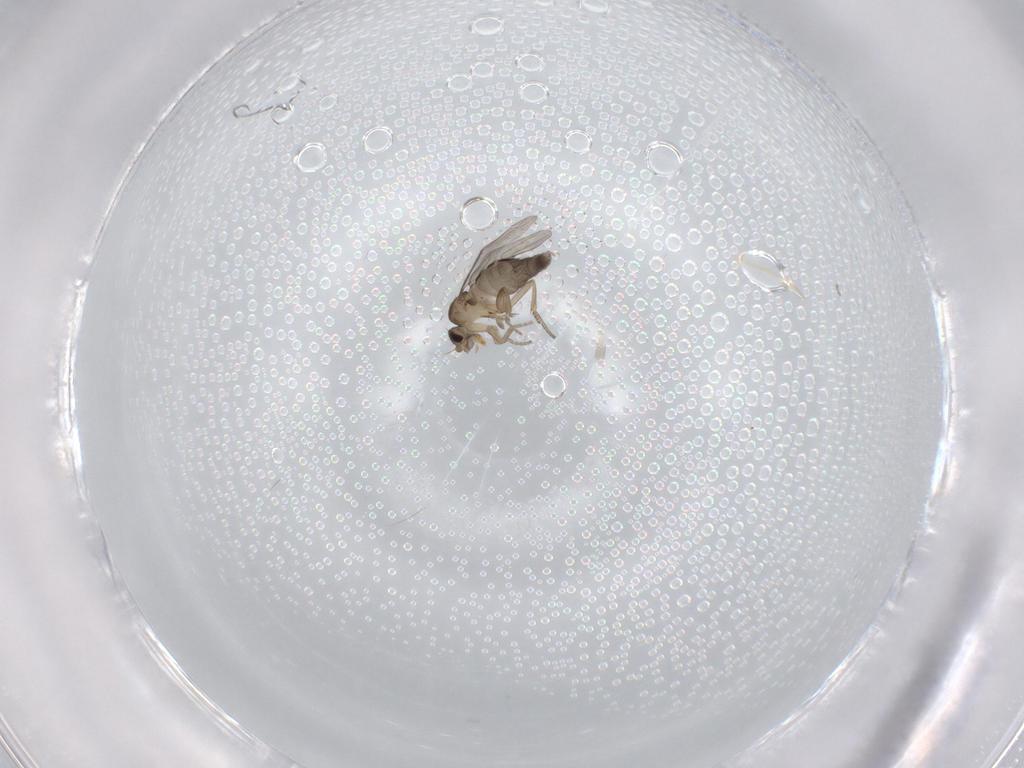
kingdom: Animalia
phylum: Arthropoda
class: Insecta
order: Diptera
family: Phoridae
